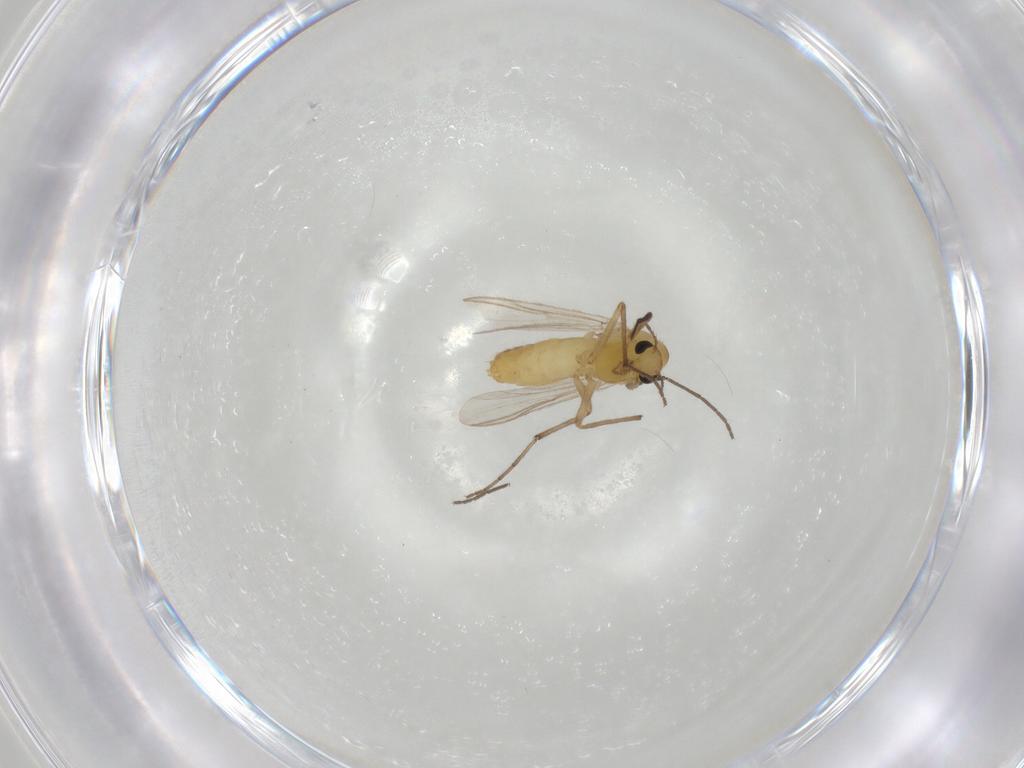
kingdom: Animalia
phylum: Arthropoda
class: Insecta
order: Diptera
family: Chironomidae
